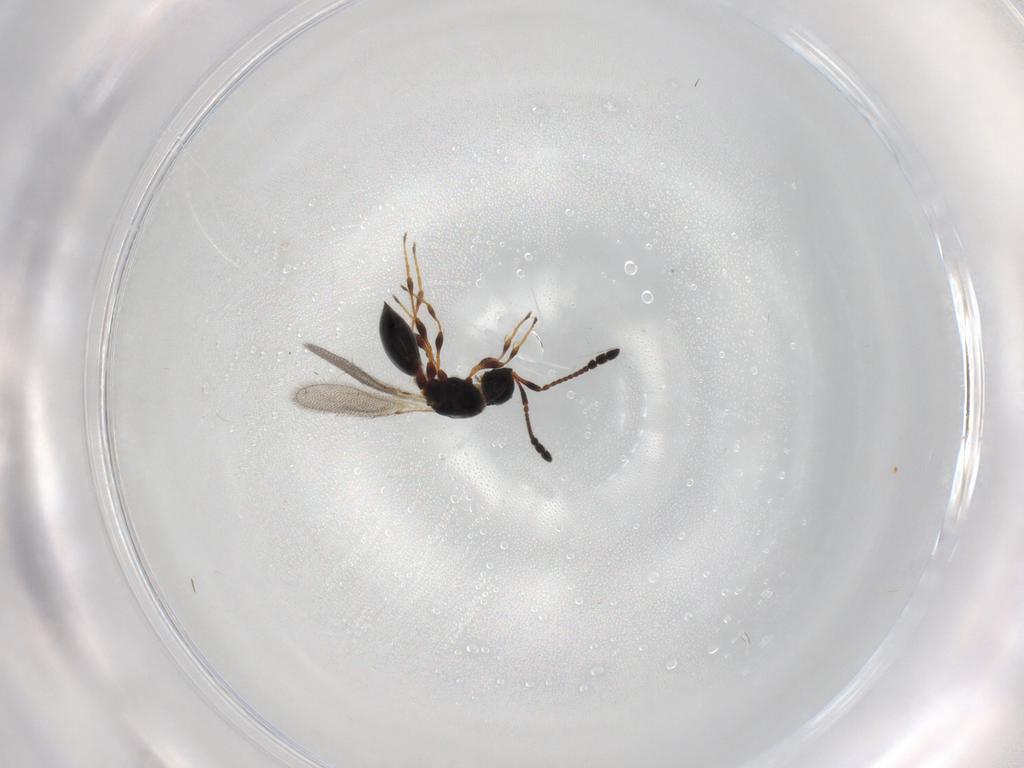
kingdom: Animalia
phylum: Arthropoda
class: Insecta
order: Hymenoptera
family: Diapriidae
